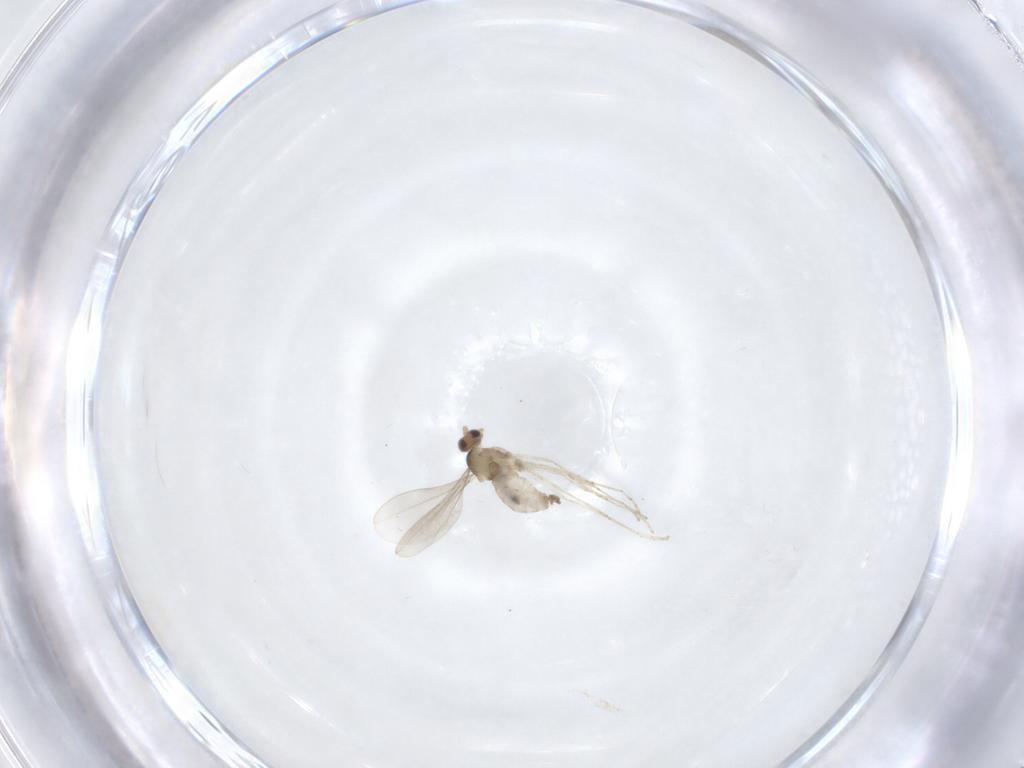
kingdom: Animalia
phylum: Arthropoda
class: Insecta
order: Diptera
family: Cecidomyiidae
